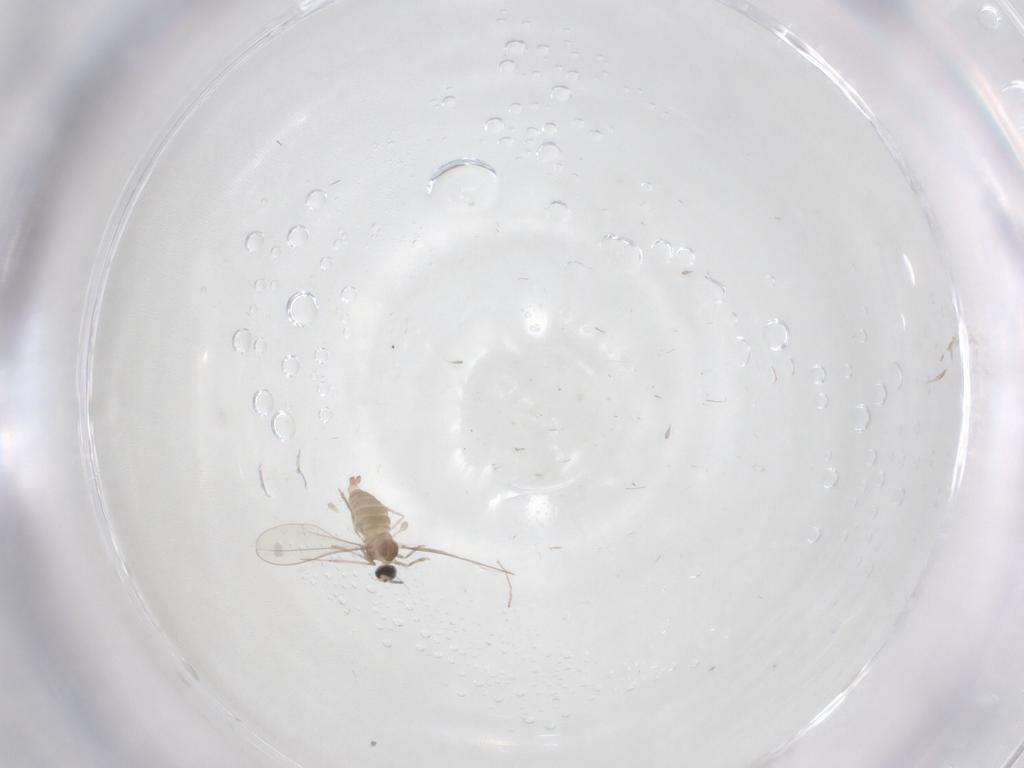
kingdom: Animalia
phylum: Arthropoda
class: Insecta
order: Diptera
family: Cecidomyiidae
